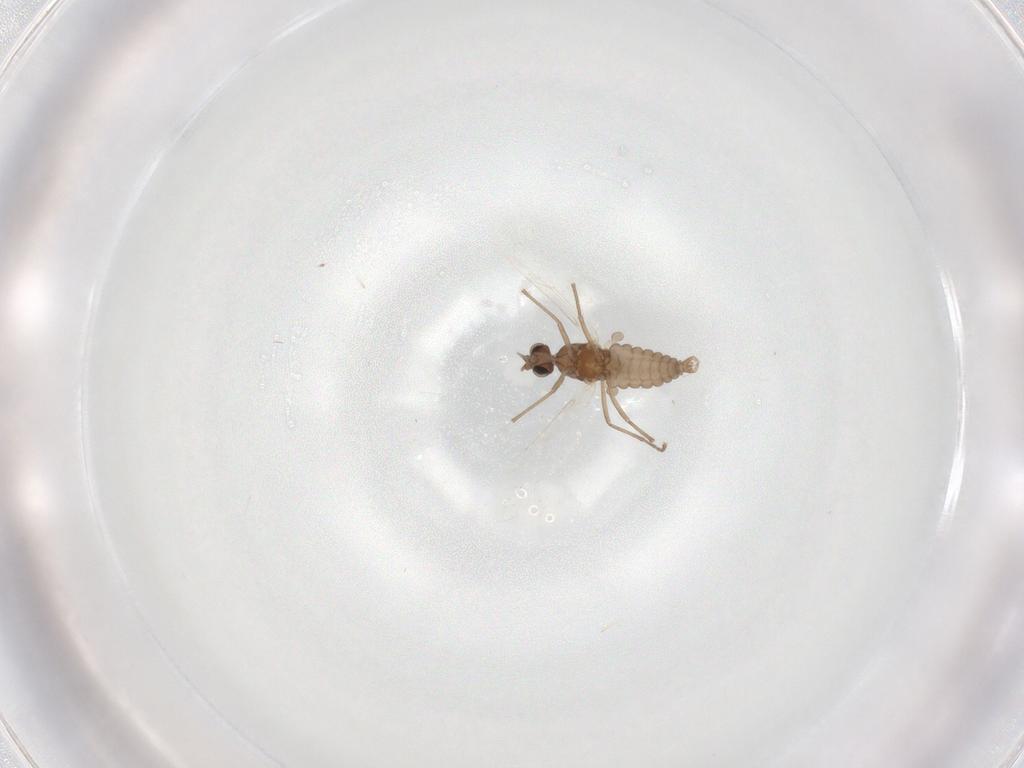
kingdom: Animalia
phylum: Arthropoda
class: Insecta
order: Diptera
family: Cecidomyiidae
